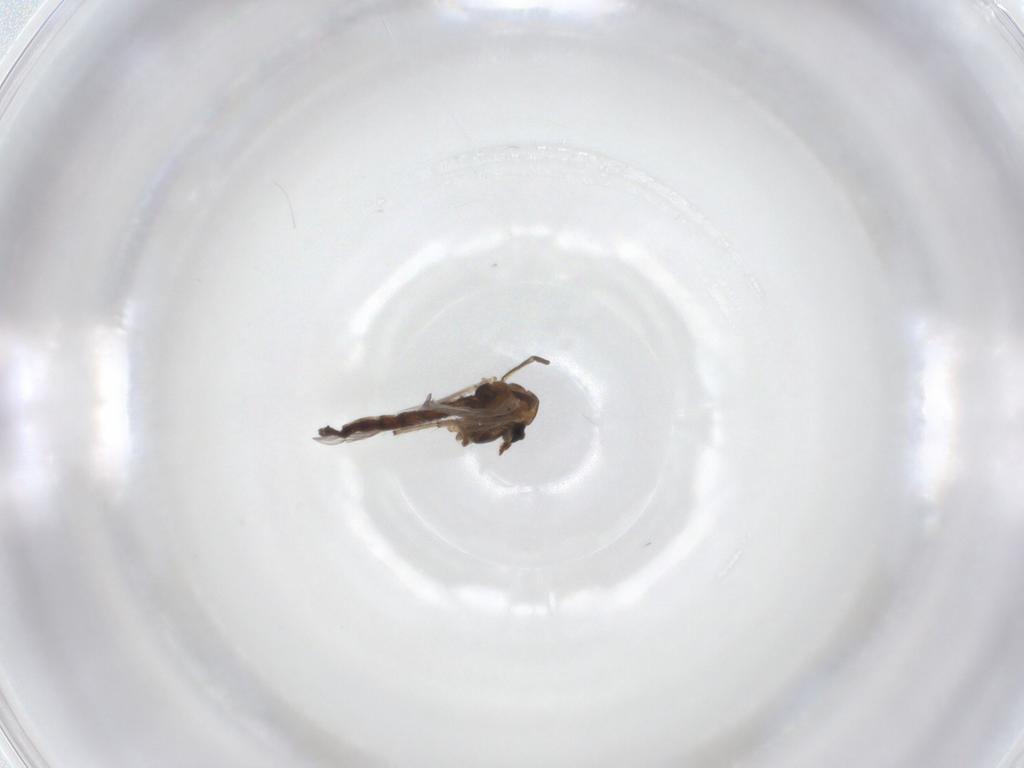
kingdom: Animalia
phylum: Arthropoda
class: Insecta
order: Diptera
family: Chironomidae
